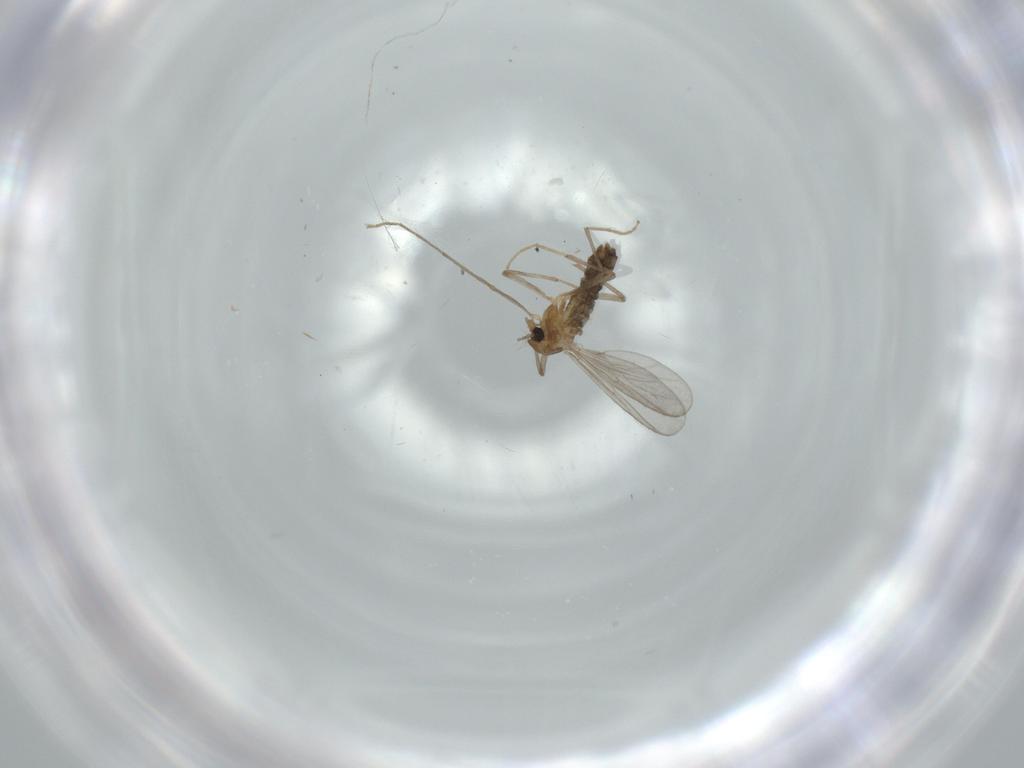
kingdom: Animalia
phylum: Arthropoda
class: Insecta
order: Diptera
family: Chironomidae
